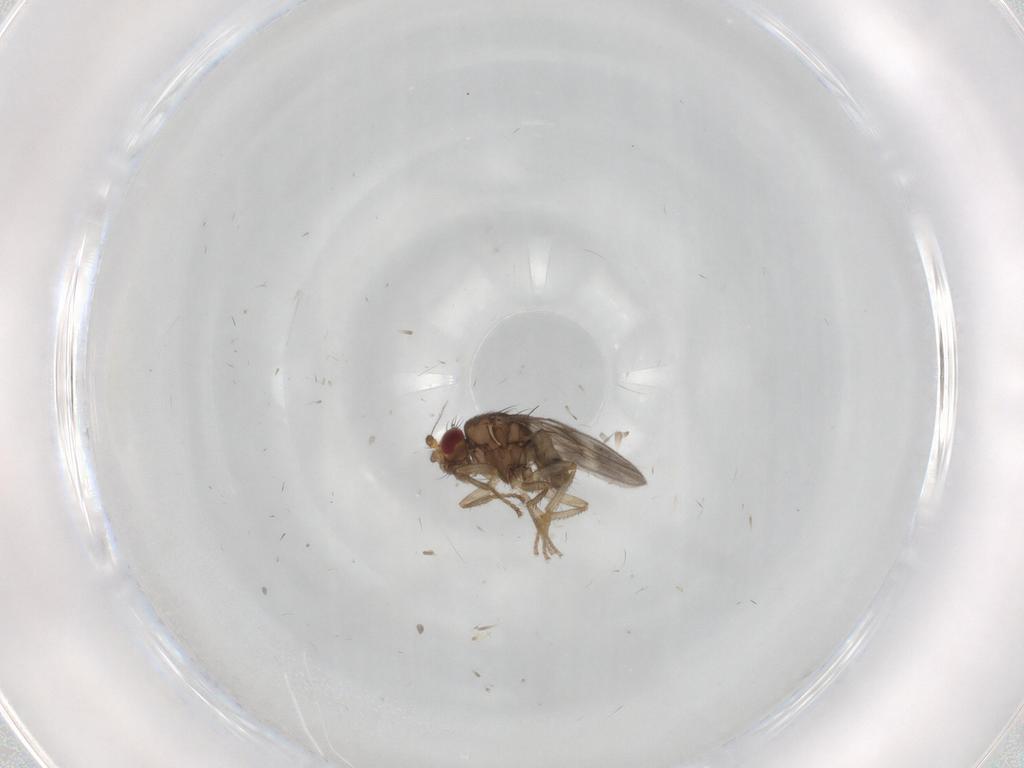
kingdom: Animalia
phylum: Arthropoda
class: Insecta
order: Diptera
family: Sphaeroceridae
